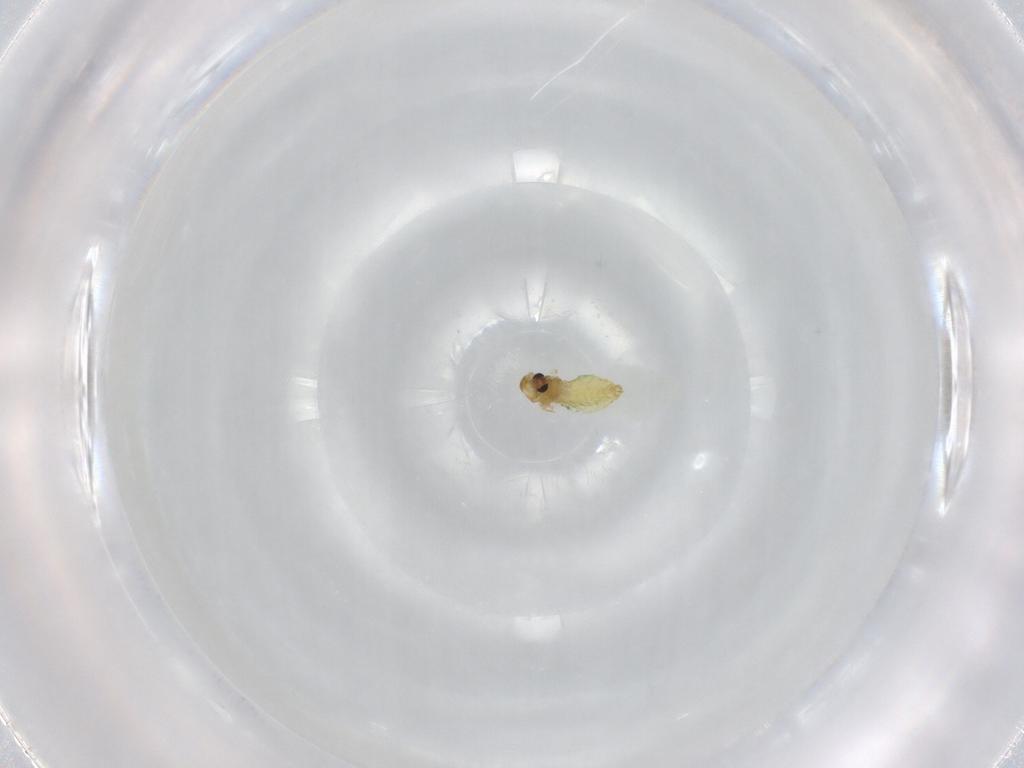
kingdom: Animalia
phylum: Arthropoda
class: Insecta
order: Diptera
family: Chironomidae
